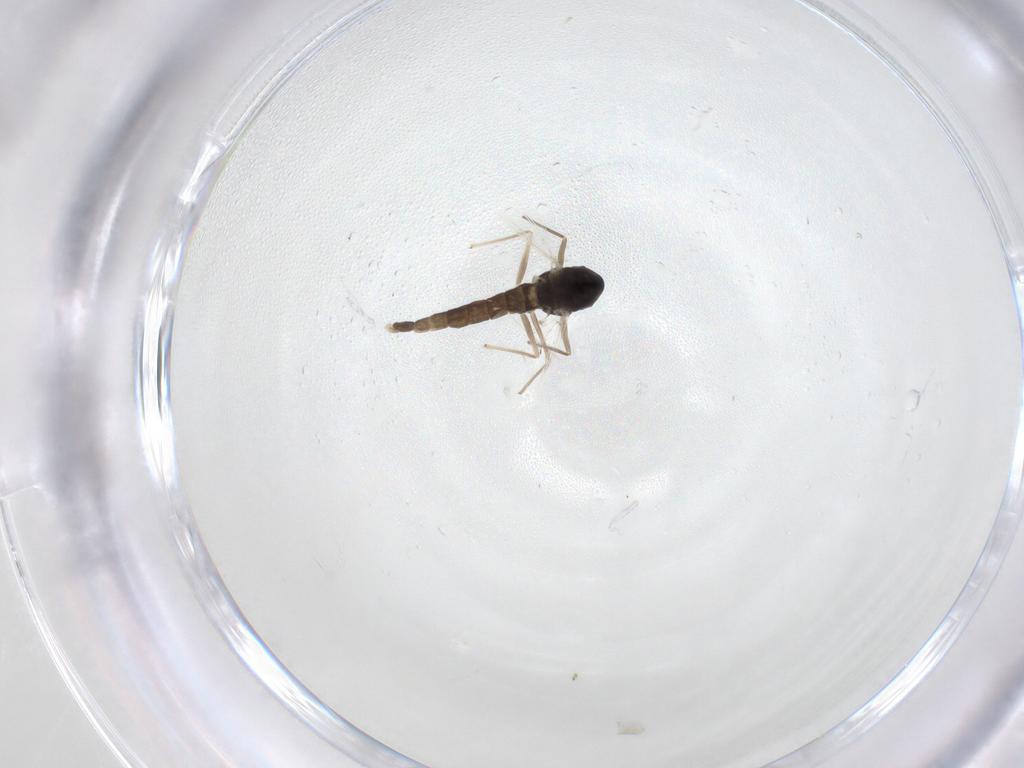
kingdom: Animalia
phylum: Arthropoda
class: Insecta
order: Diptera
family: Chironomidae
